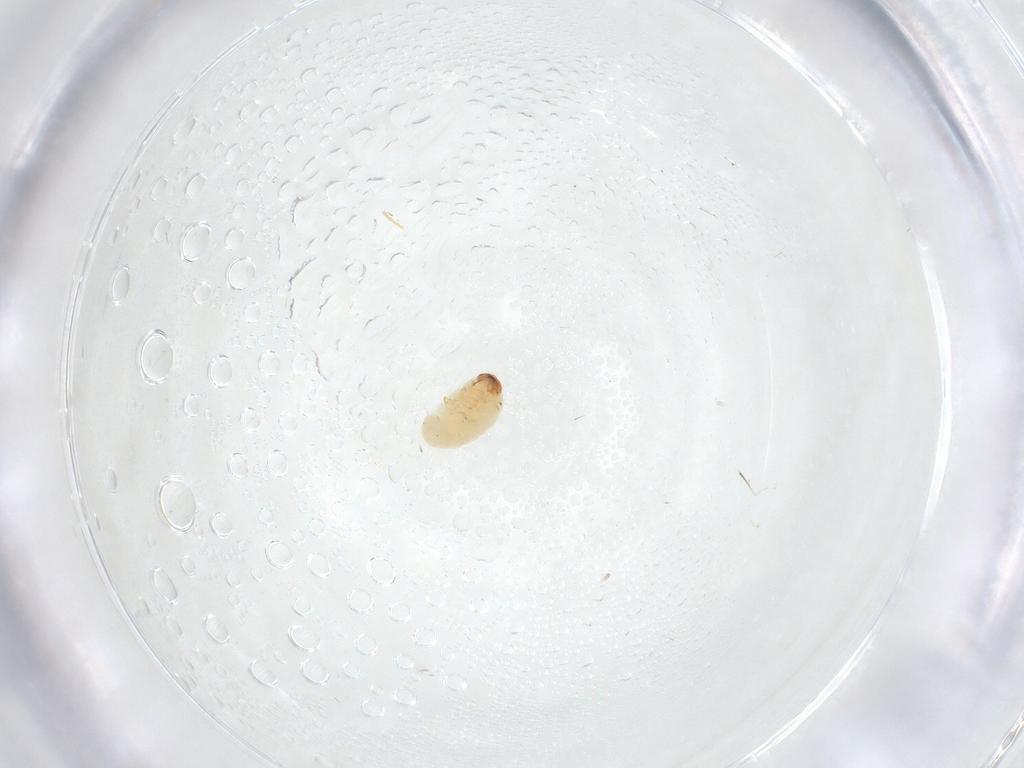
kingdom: Animalia
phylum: Arthropoda
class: Insecta
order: Coleoptera
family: Bostrichidae
